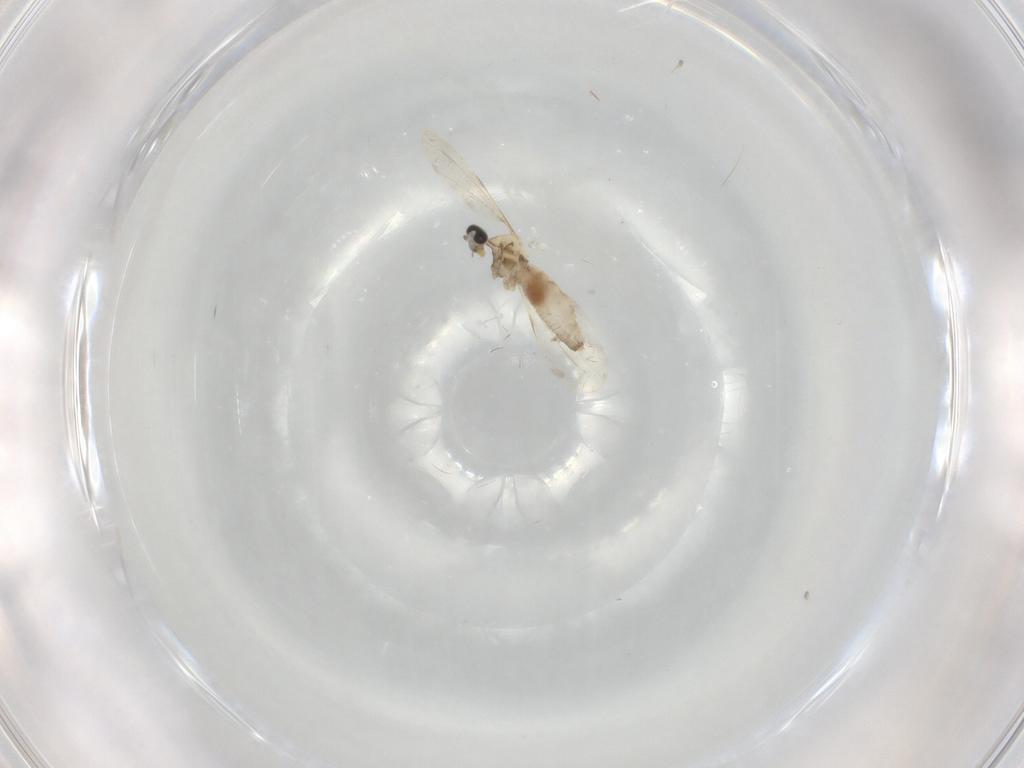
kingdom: Animalia
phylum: Arthropoda
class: Insecta
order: Diptera
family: Cecidomyiidae
